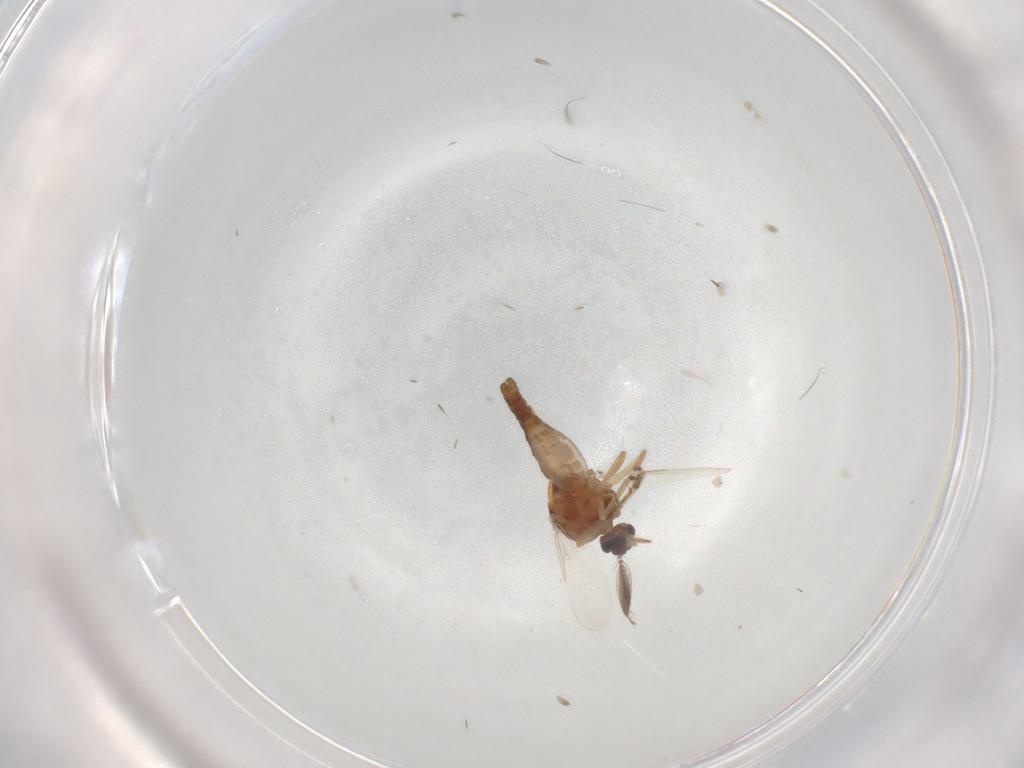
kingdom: Animalia
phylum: Arthropoda
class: Insecta
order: Diptera
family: Ceratopogonidae
